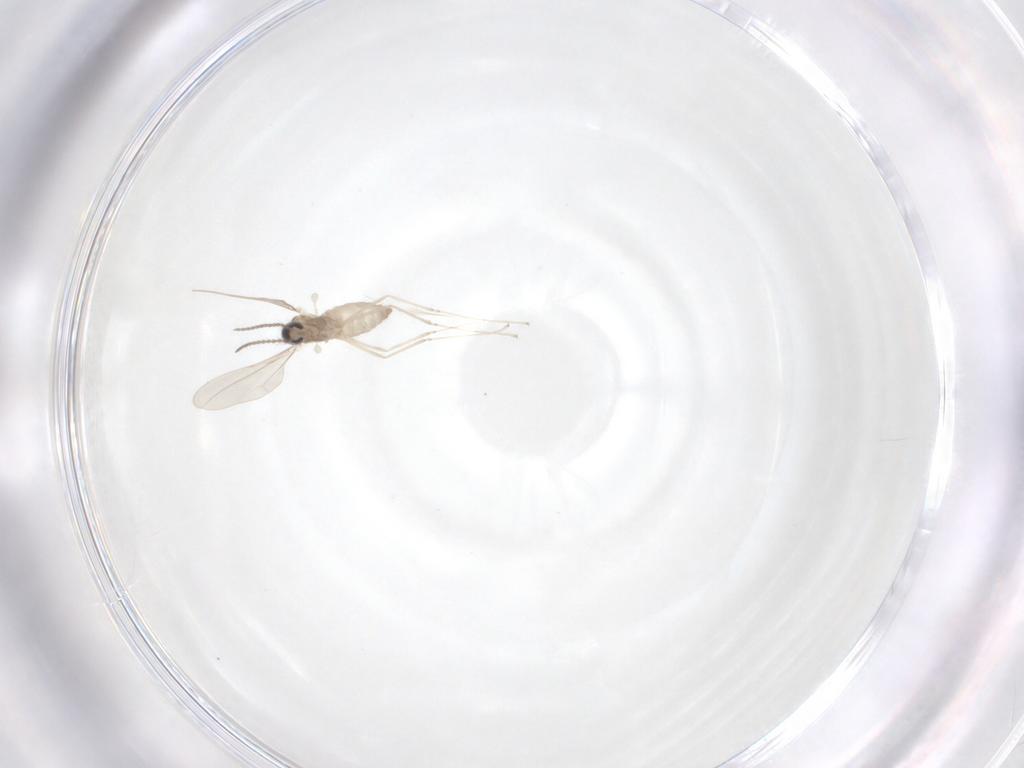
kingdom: Animalia
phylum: Arthropoda
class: Insecta
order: Diptera
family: Cecidomyiidae
